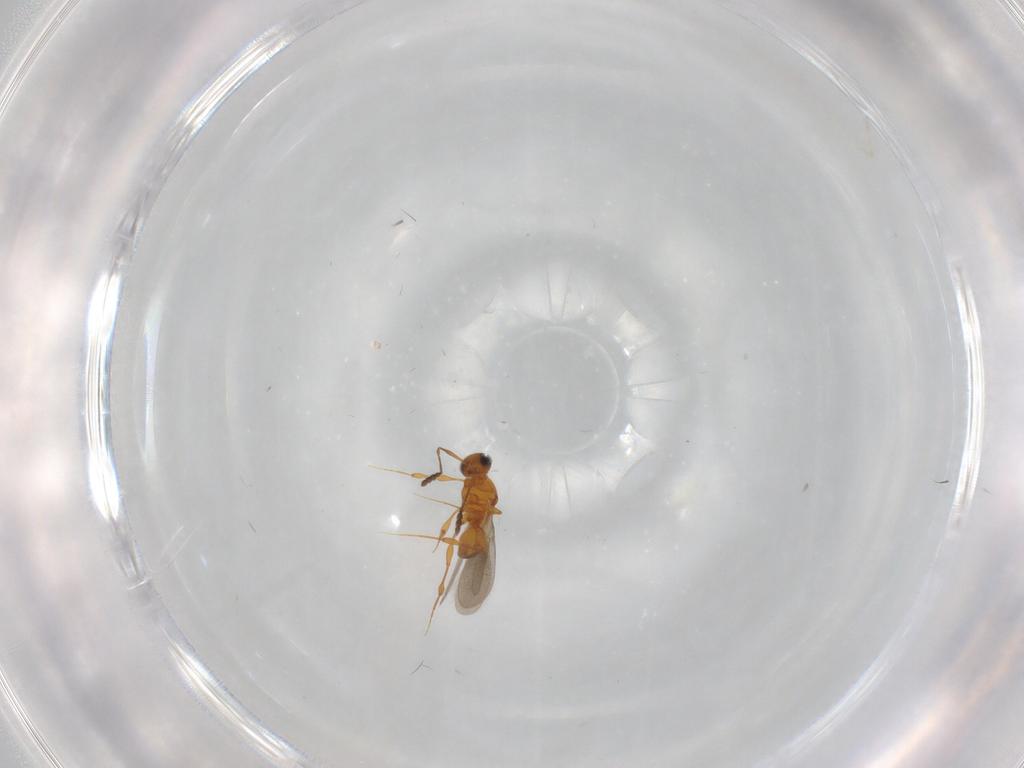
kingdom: Animalia
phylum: Arthropoda
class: Insecta
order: Hymenoptera
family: Platygastridae
